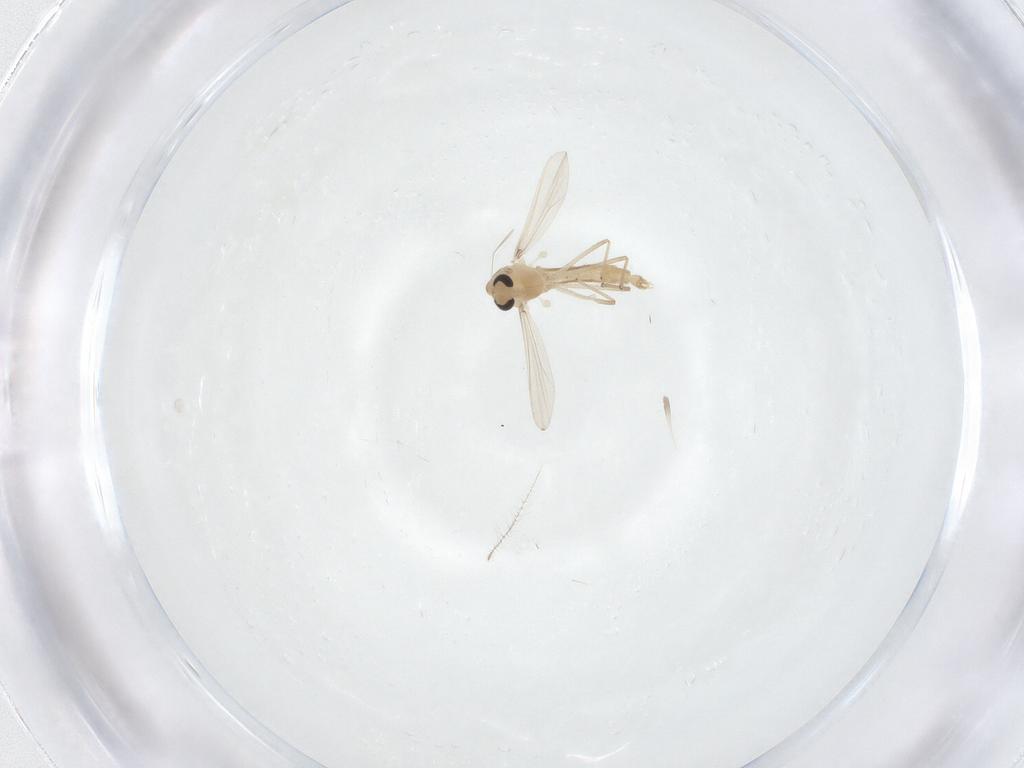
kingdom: Animalia
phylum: Arthropoda
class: Insecta
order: Diptera
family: Chironomidae
